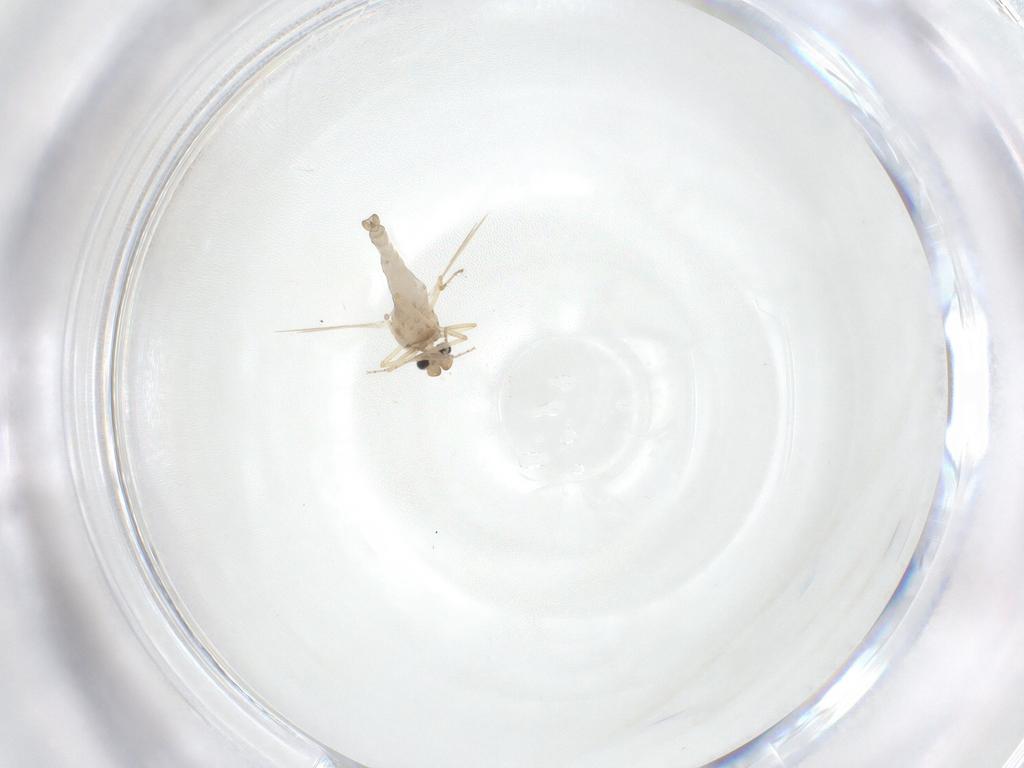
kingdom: Animalia
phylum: Arthropoda
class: Insecta
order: Diptera
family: Ceratopogonidae
